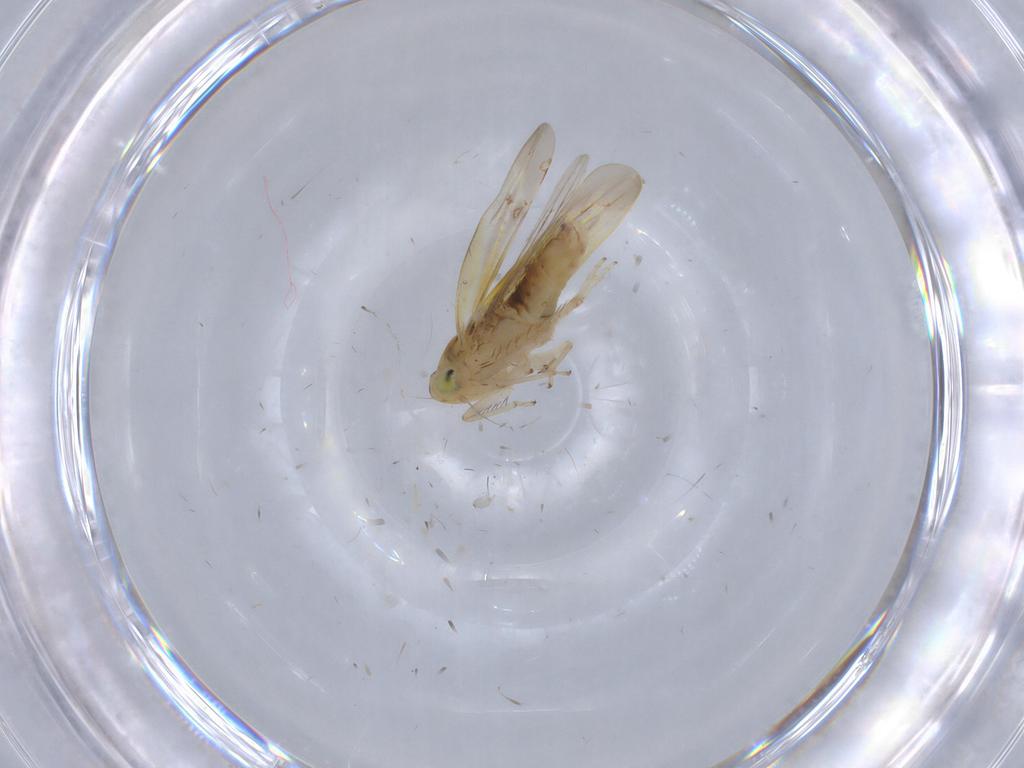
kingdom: Animalia
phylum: Arthropoda
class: Insecta
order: Hemiptera
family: Cicadellidae
